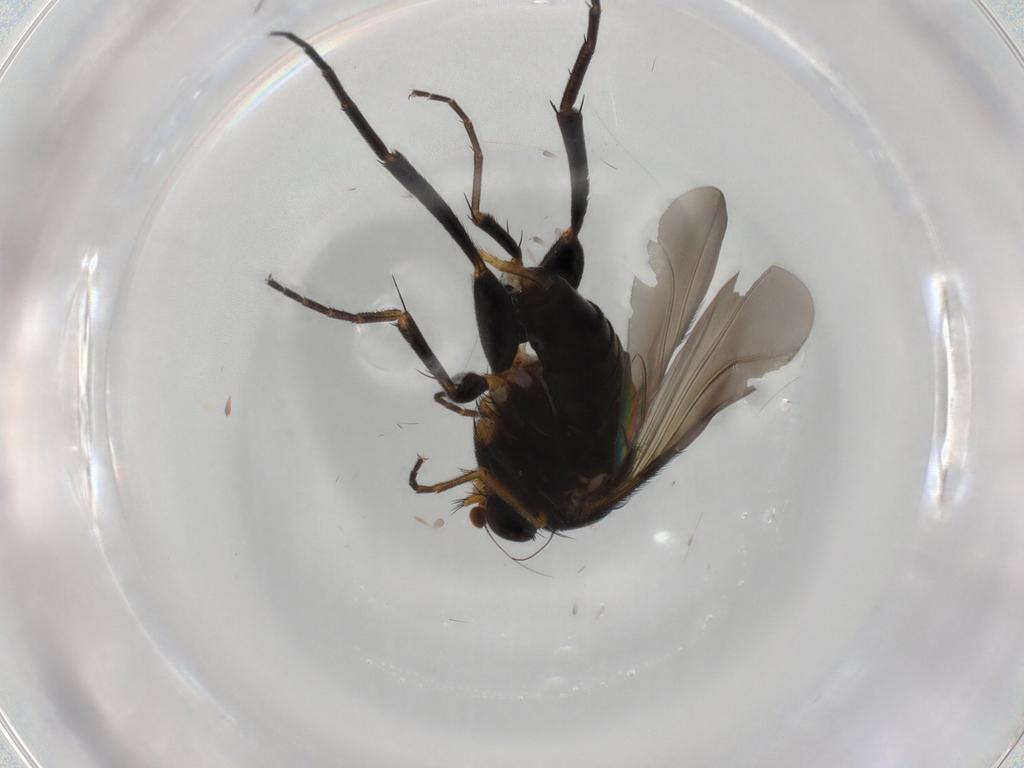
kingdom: Animalia
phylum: Arthropoda
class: Insecta
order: Diptera
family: Phoridae
